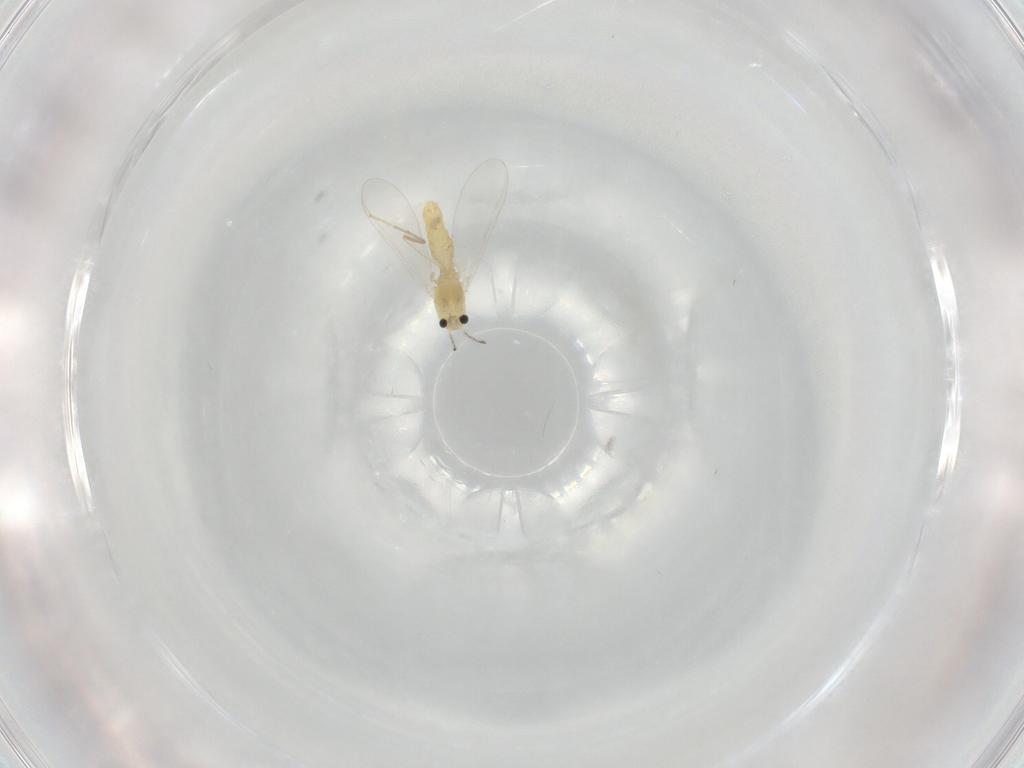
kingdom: Animalia
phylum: Arthropoda
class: Insecta
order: Diptera
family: Chironomidae
